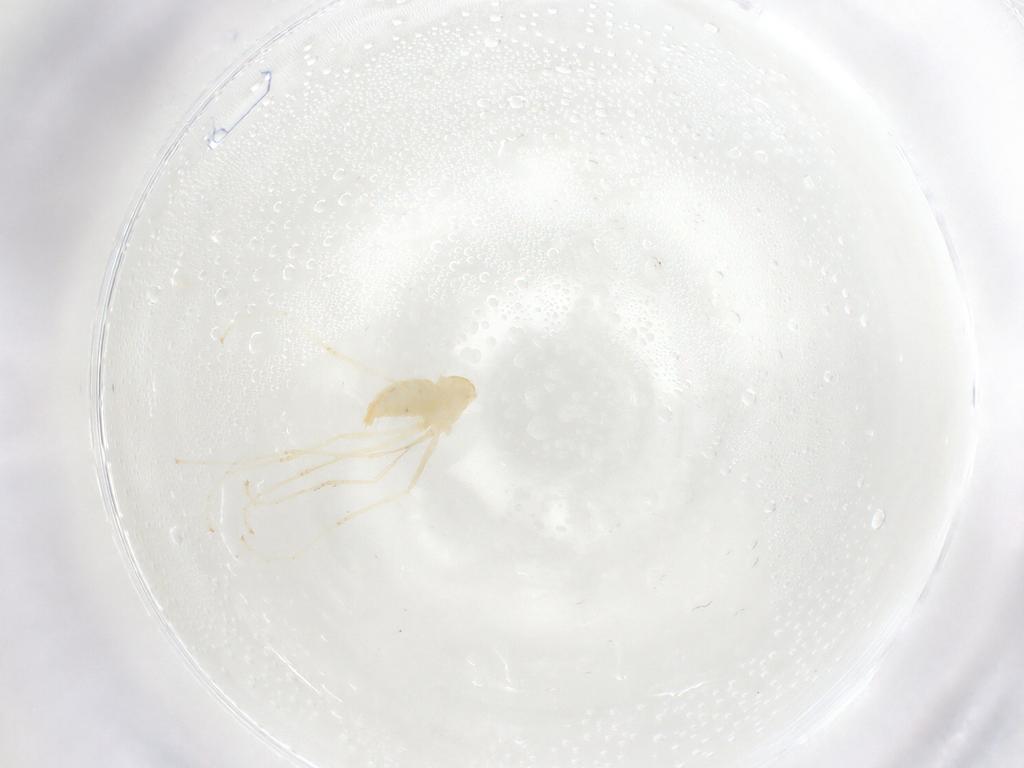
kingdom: Animalia
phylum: Arthropoda
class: Insecta
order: Diptera
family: Cecidomyiidae
